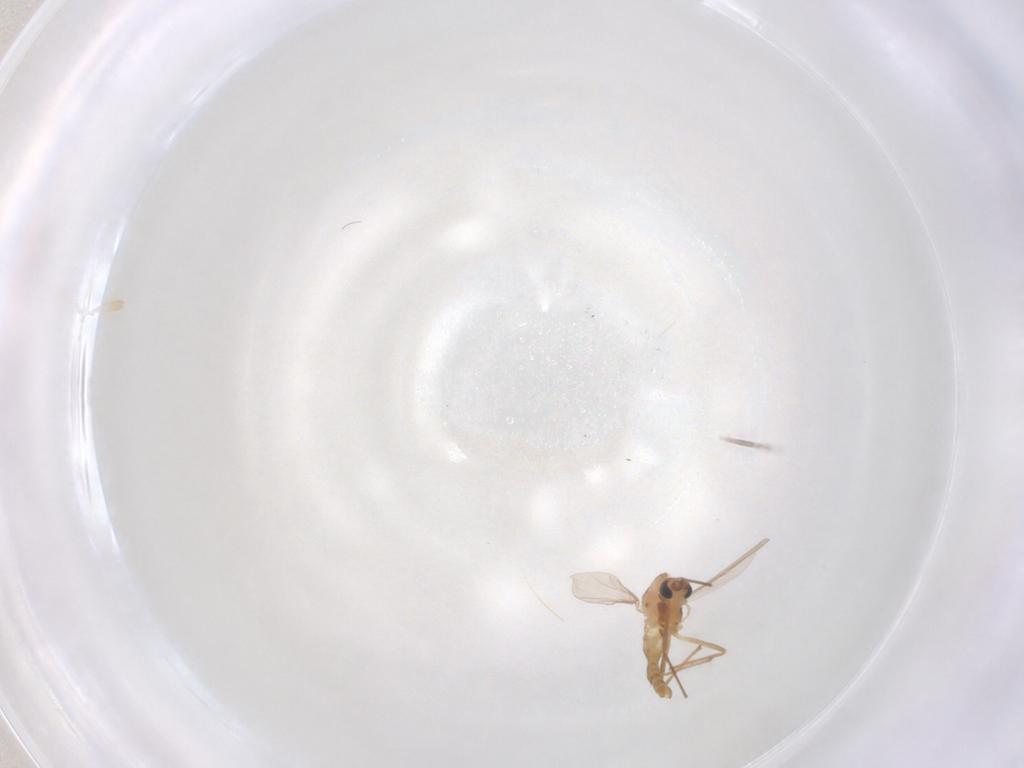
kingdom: Animalia
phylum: Arthropoda
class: Insecta
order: Diptera
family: Chironomidae
